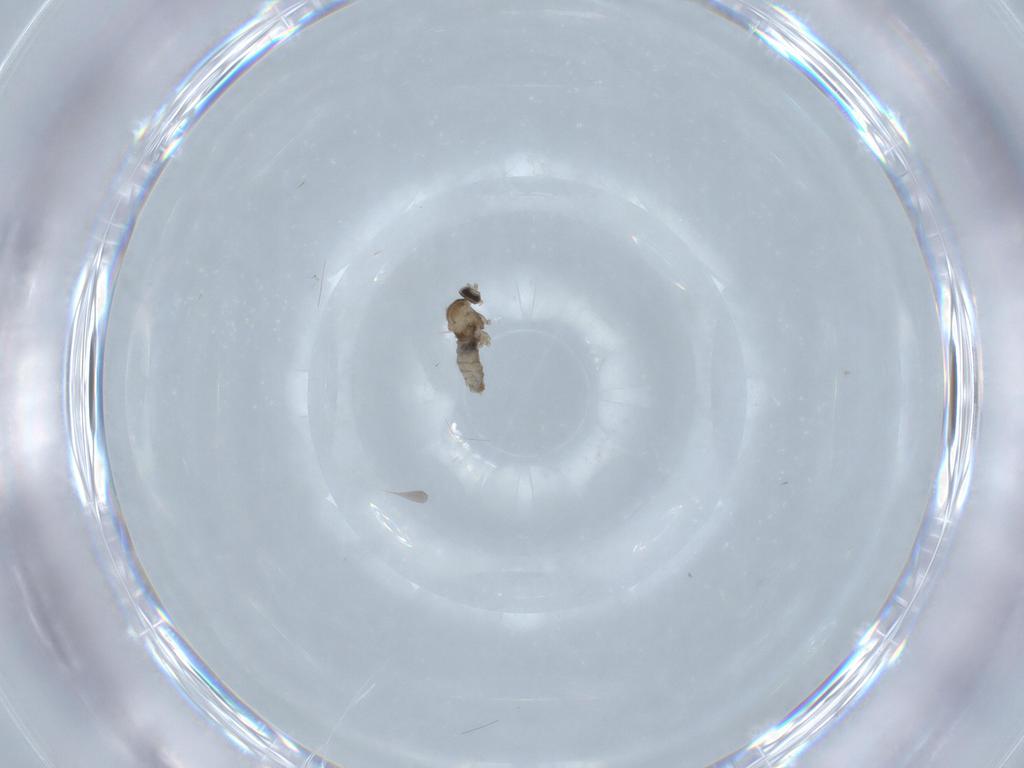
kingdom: Animalia
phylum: Arthropoda
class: Insecta
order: Diptera
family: Cecidomyiidae
